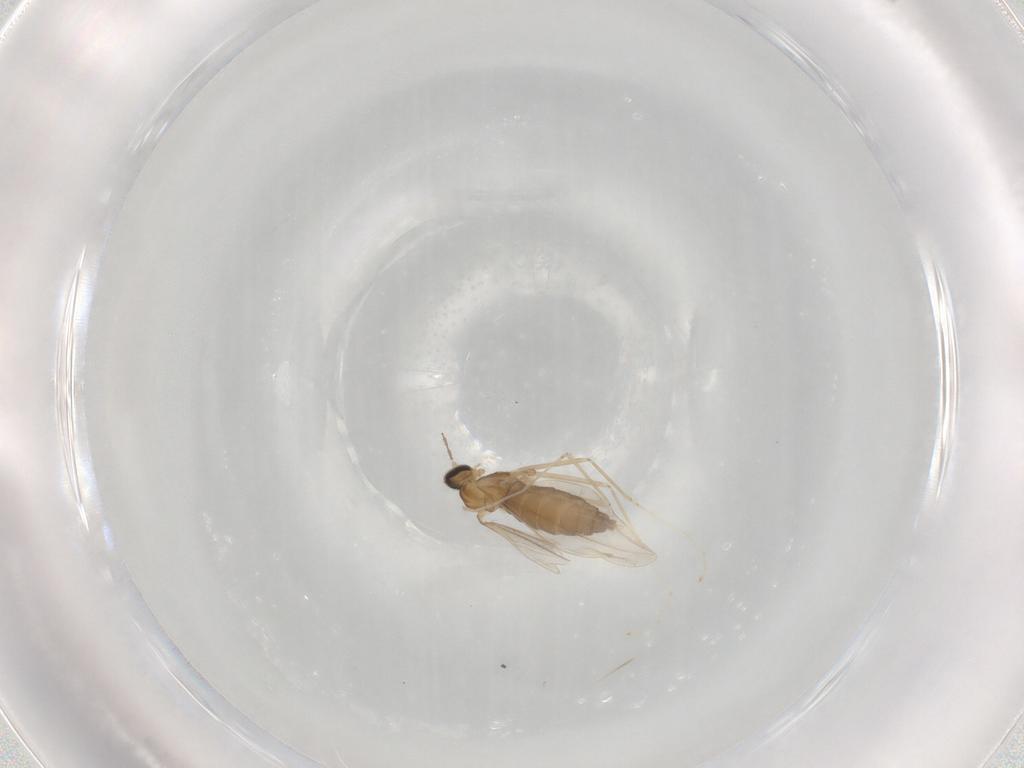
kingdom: Animalia
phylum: Arthropoda
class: Insecta
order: Diptera
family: Cecidomyiidae
